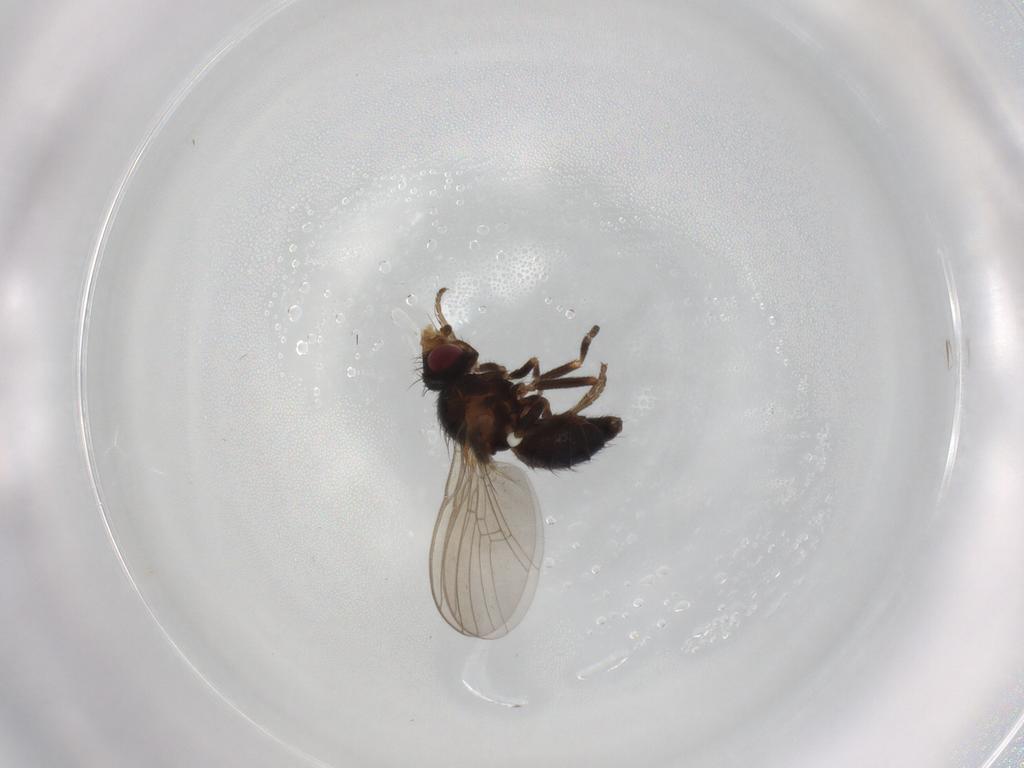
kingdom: Animalia
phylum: Arthropoda
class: Insecta
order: Diptera
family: Agromyzidae
